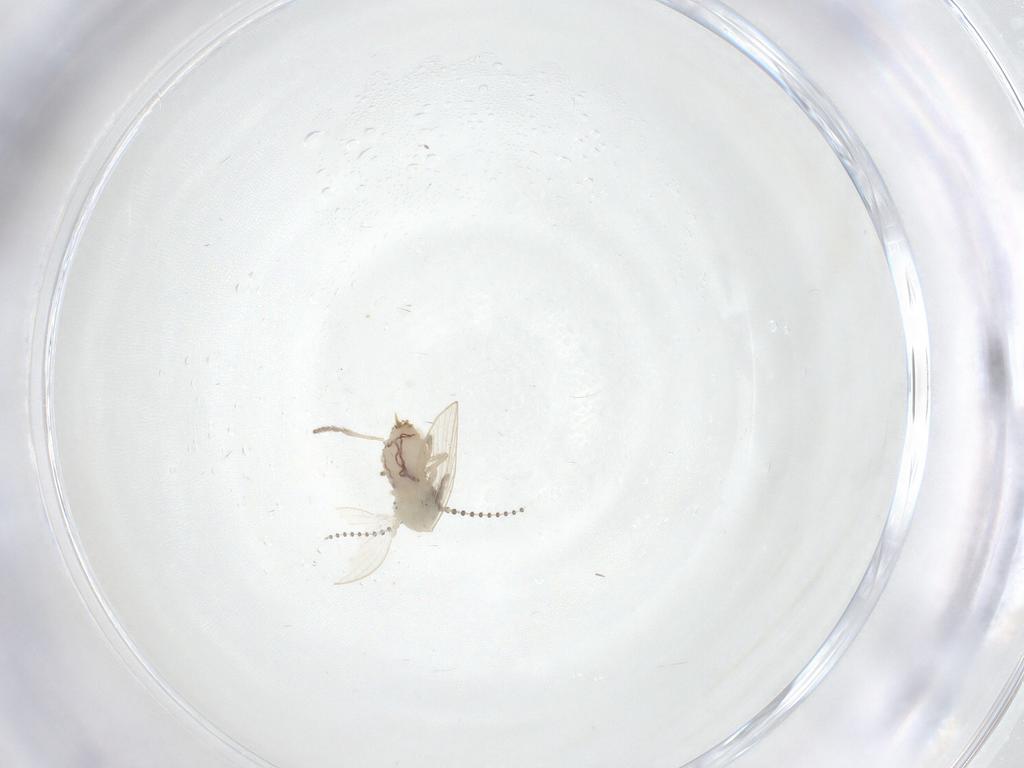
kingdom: Animalia
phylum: Arthropoda
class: Insecta
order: Diptera
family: Psychodidae
